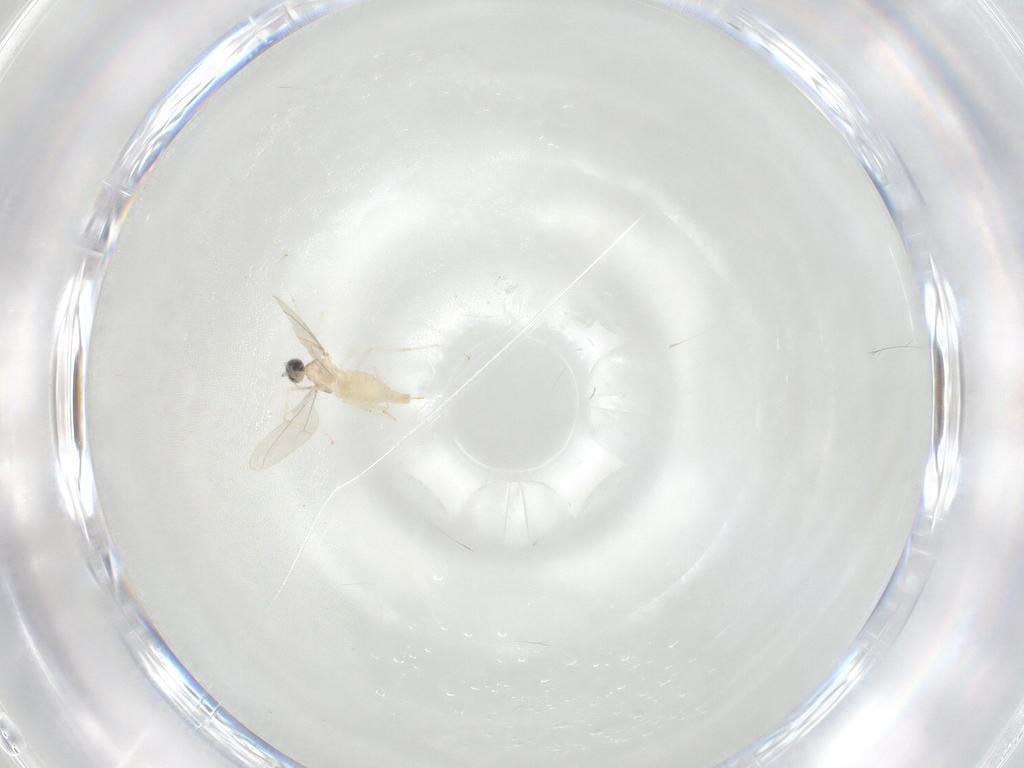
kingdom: Animalia
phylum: Arthropoda
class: Insecta
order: Diptera
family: Cecidomyiidae
